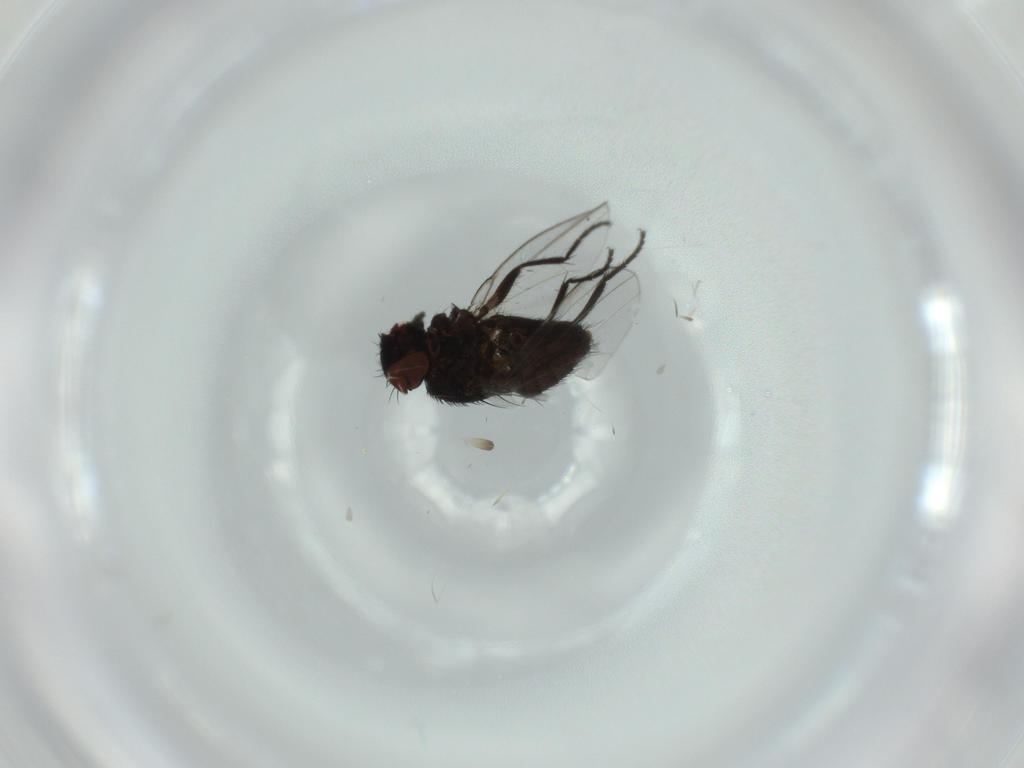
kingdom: Animalia
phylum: Arthropoda
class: Insecta
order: Diptera
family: Milichiidae
